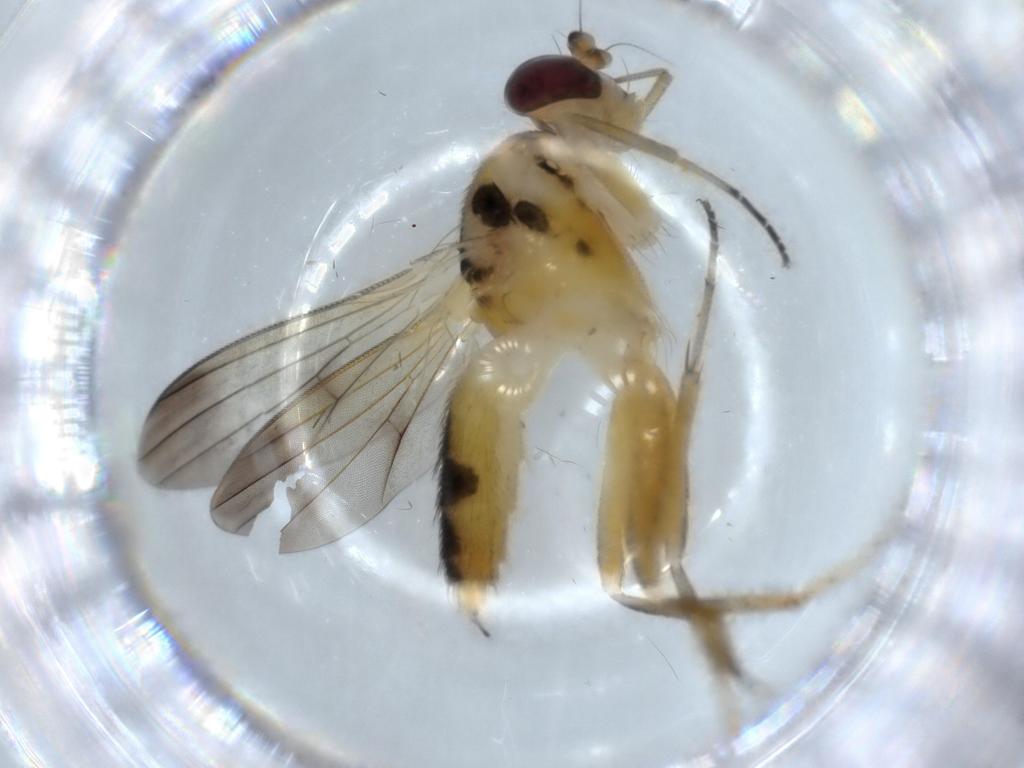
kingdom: Animalia
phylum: Arthropoda
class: Insecta
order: Diptera
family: Clusiidae
